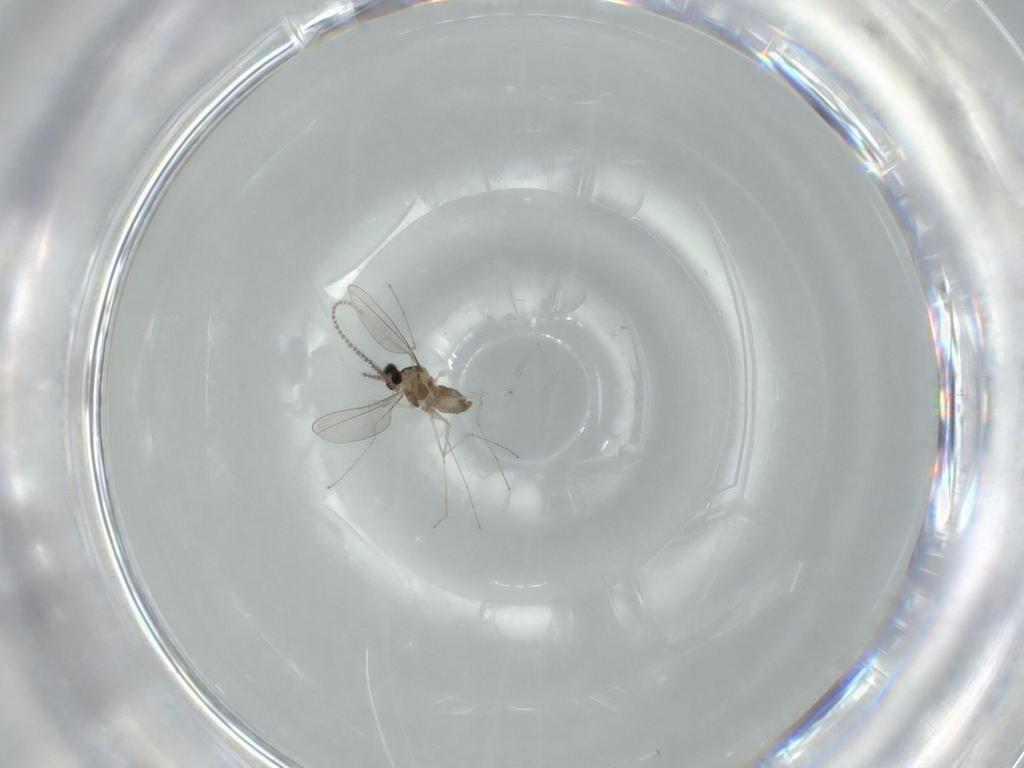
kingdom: Animalia
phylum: Arthropoda
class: Insecta
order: Diptera
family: Cecidomyiidae
